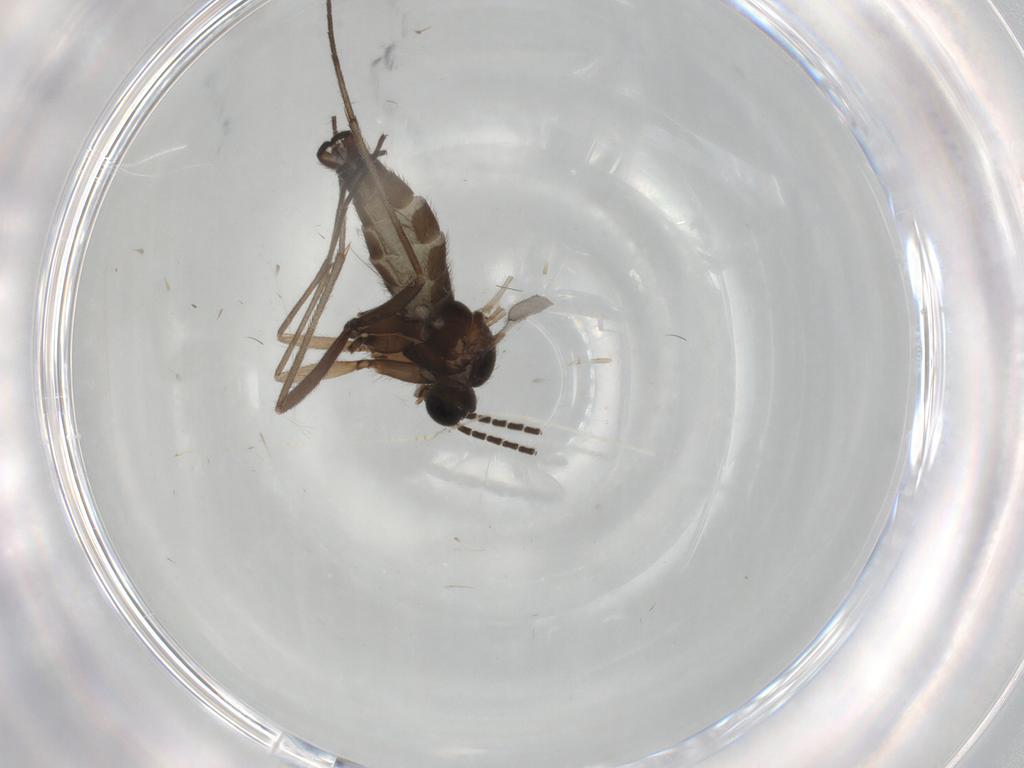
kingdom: Animalia
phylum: Arthropoda
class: Insecta
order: Diptera
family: Sciaridae
